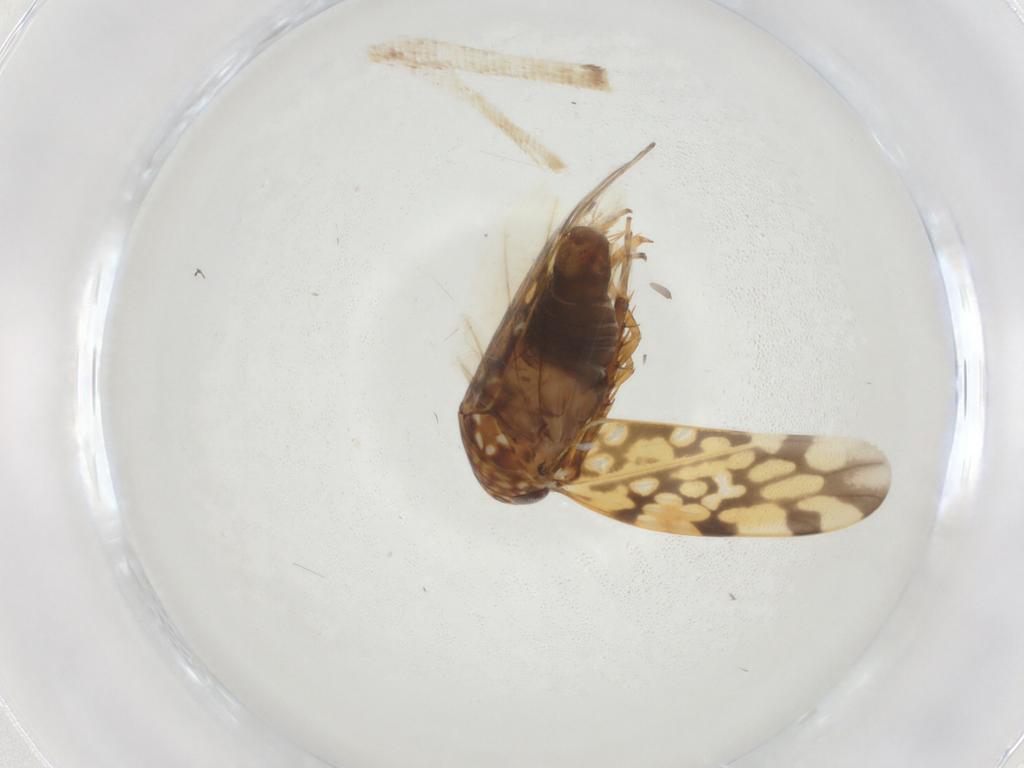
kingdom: Animalia
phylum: Arthropoda
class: Insecta
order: Hemiptera
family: Cicadellidae
